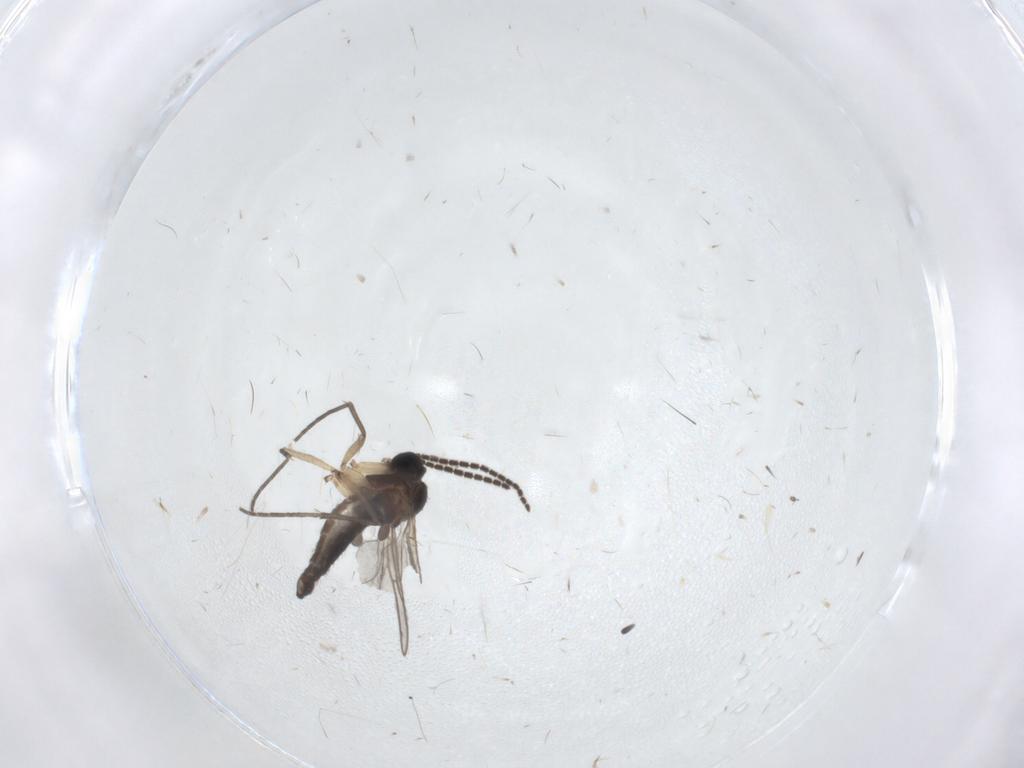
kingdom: Animalia
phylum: Arthropoda
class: Insecta
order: Diptera
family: Sciaridae
